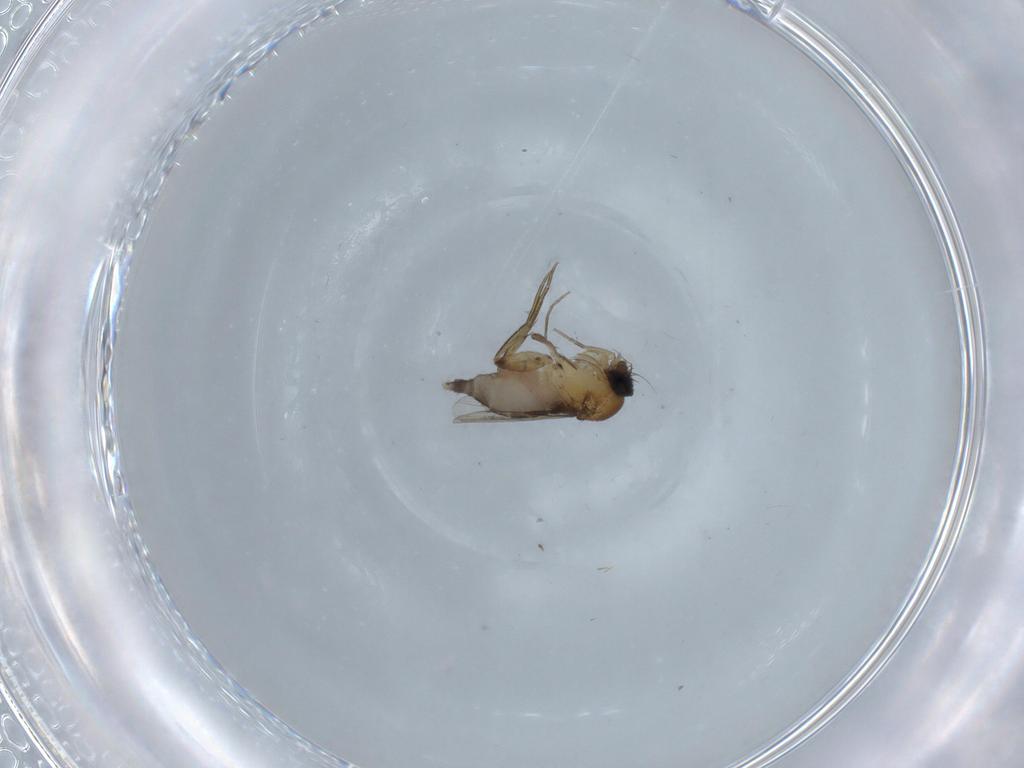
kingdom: Animalia
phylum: Arthropoda
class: Insecta
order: Diptera
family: Phoridae
